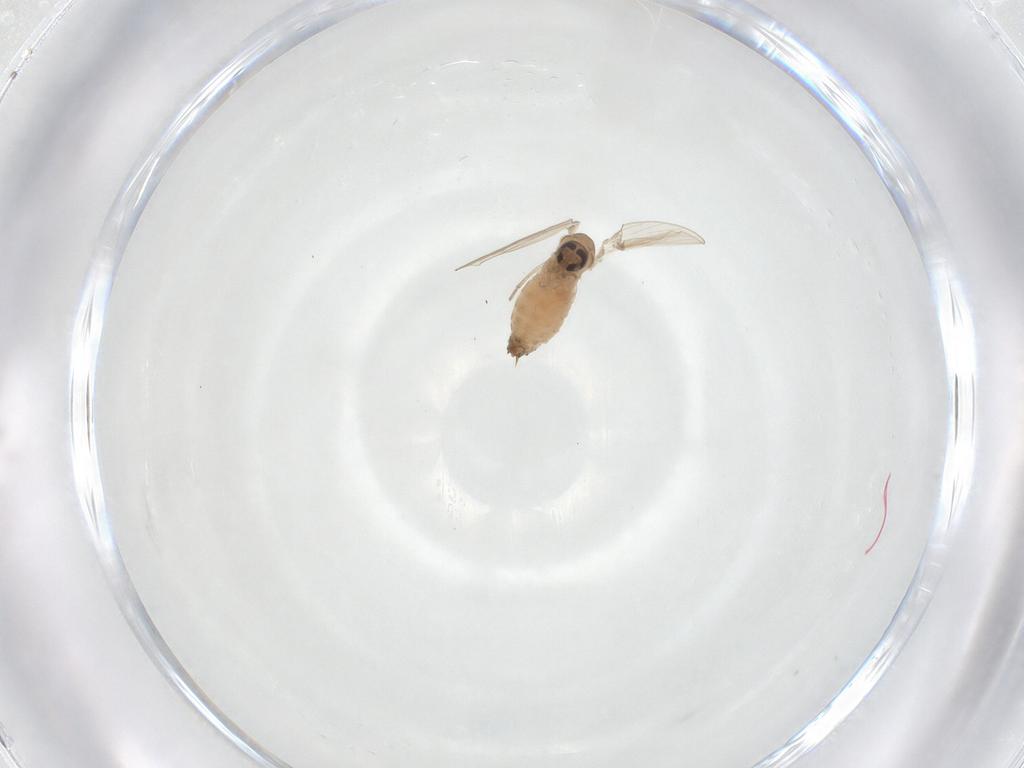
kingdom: Animalia
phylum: Arthropoda
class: Insecta
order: Diptera
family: Psychodidae
